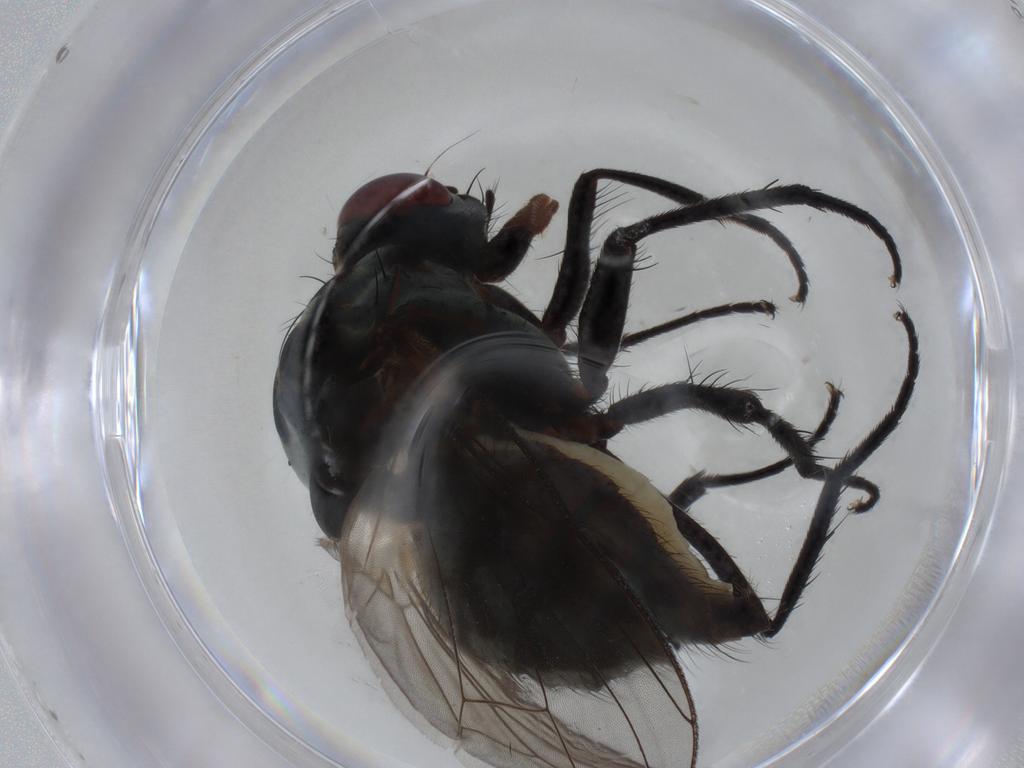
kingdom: Animalia
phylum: Arthropoda
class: Insecta
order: Diptera
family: Anthomyiidae
